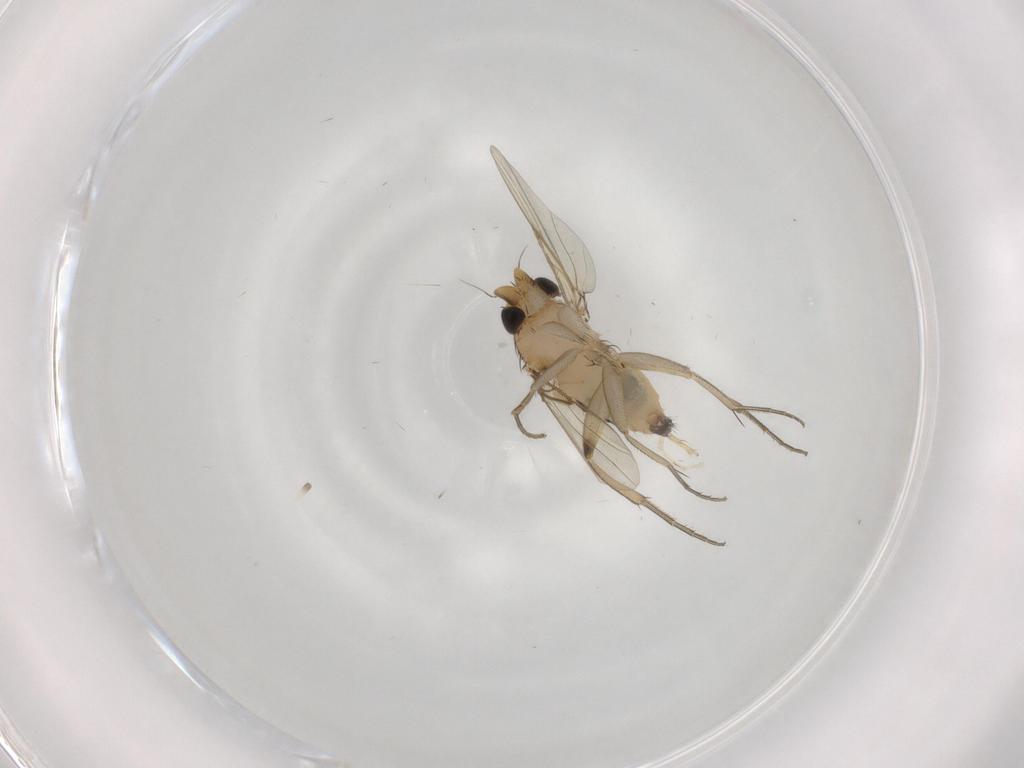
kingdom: Animalia
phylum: Arthropoda
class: Insecta
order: Diptera
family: Phoridae
